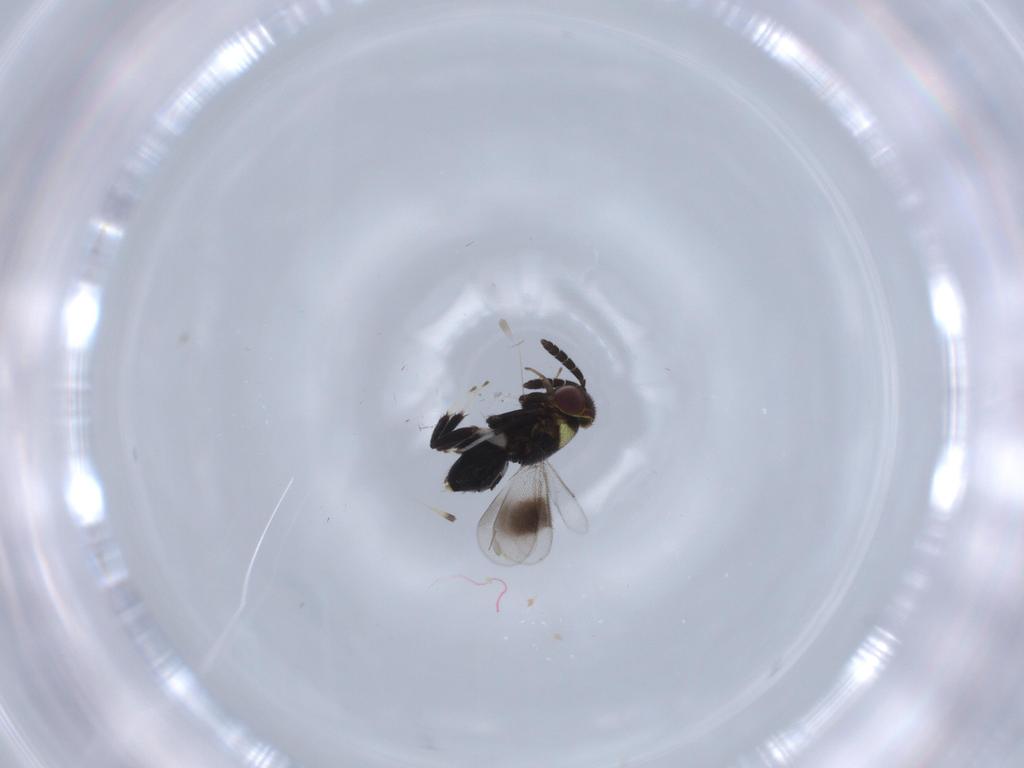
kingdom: Animalia
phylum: Arthropoda
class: Insecta
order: Hymenoptera
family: Aphelinidae
